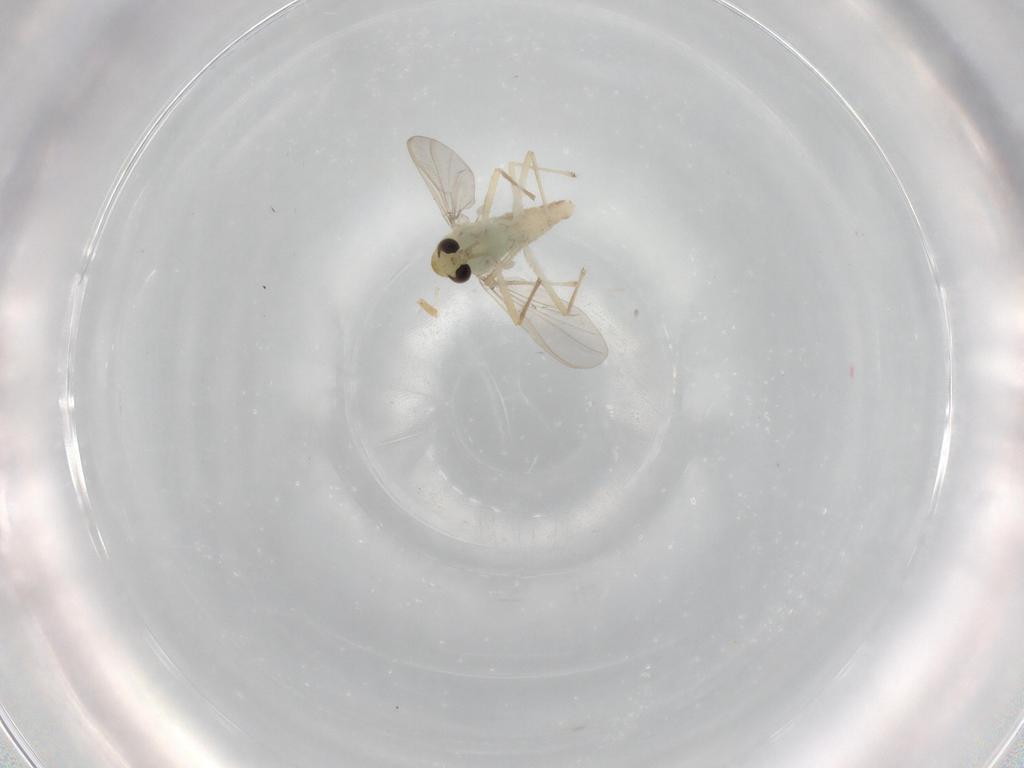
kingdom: Animalia
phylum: Arthropoda
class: Insecta
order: Diptera
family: Chironomidae
